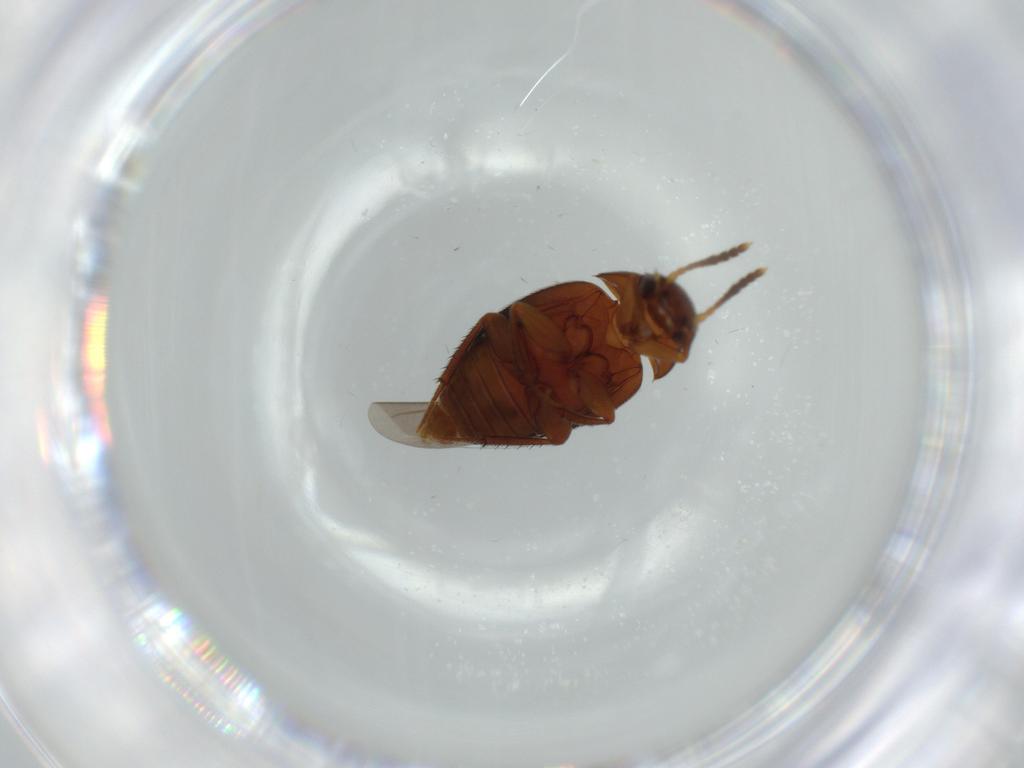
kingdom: Animalia
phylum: Arthropoda
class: Insecta
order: Coleoptera
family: Leiodidae
